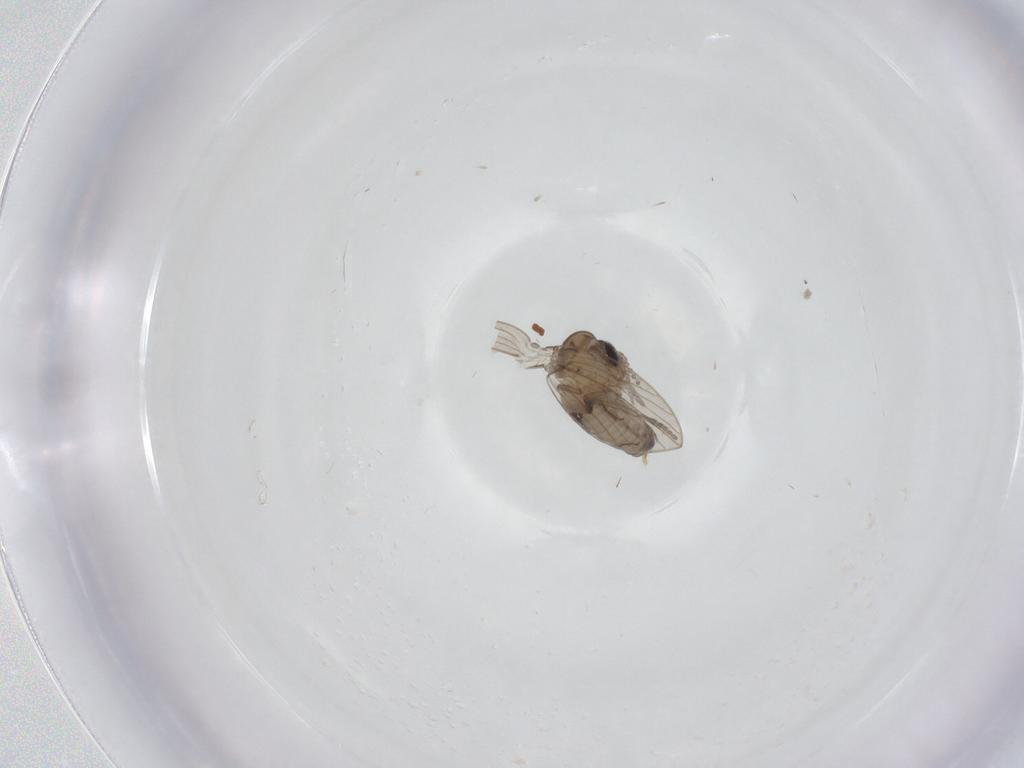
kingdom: Animalia
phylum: Arthropoda
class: Insecta
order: Diptera
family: Psychodidae
